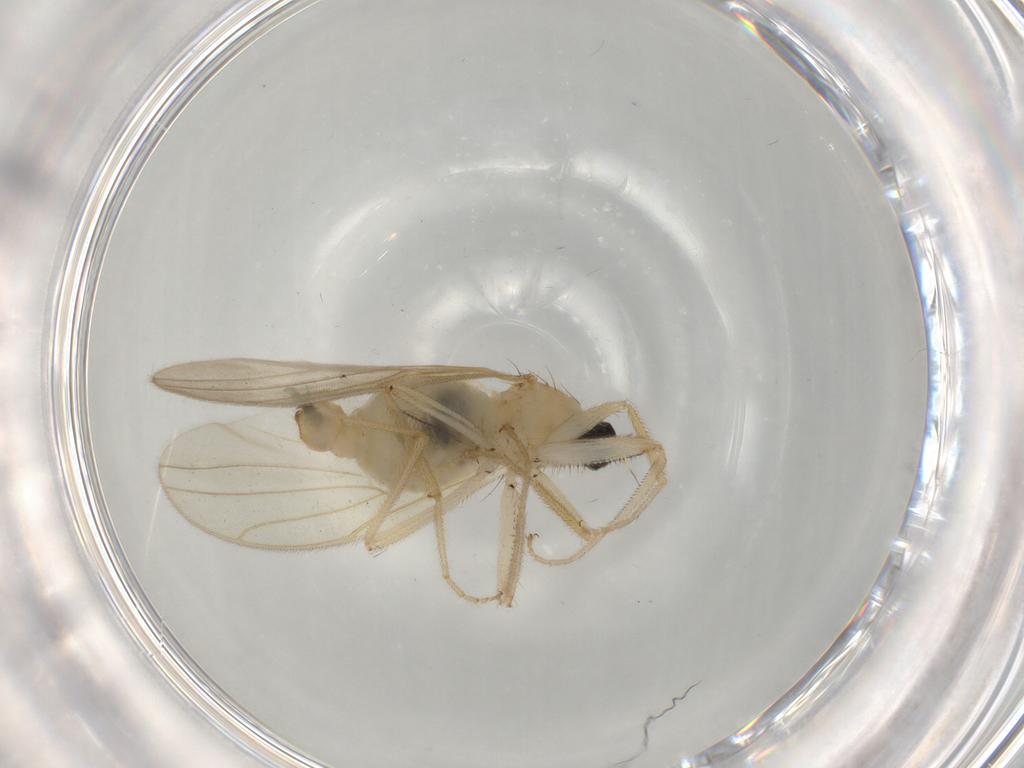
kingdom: Animalia
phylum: Arthropoda
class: Insecta
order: Diptera
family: Hybotidae
